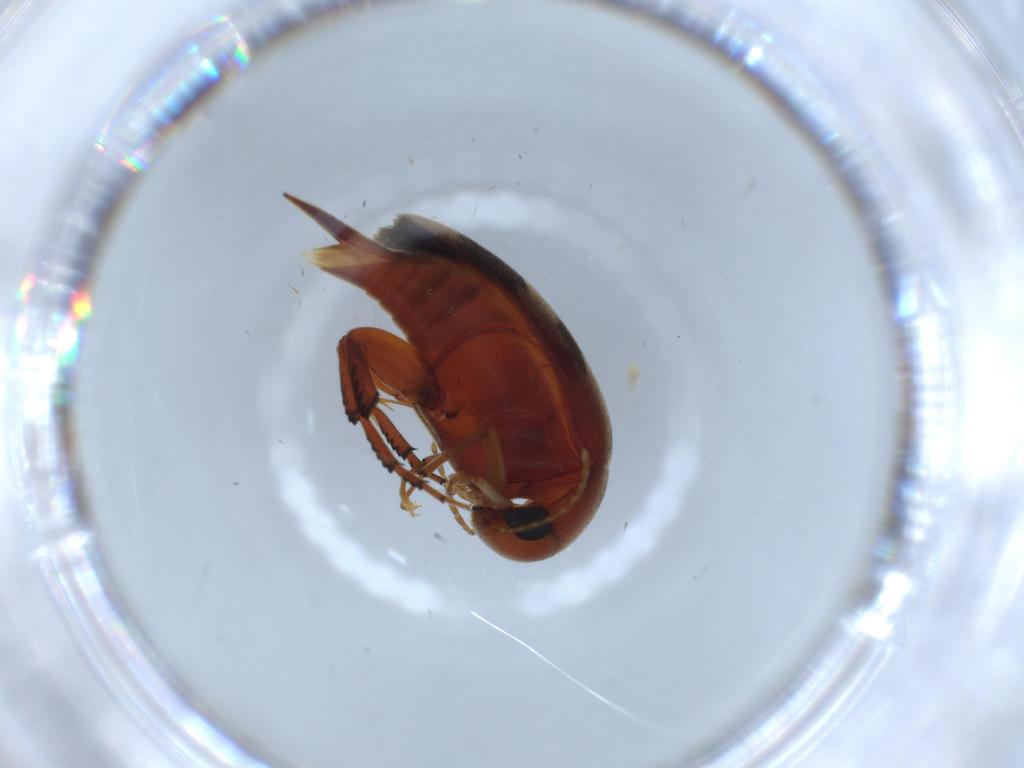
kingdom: Animalia
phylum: Arthropoda
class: Insecta
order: Coleoptera
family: Mordellidae
